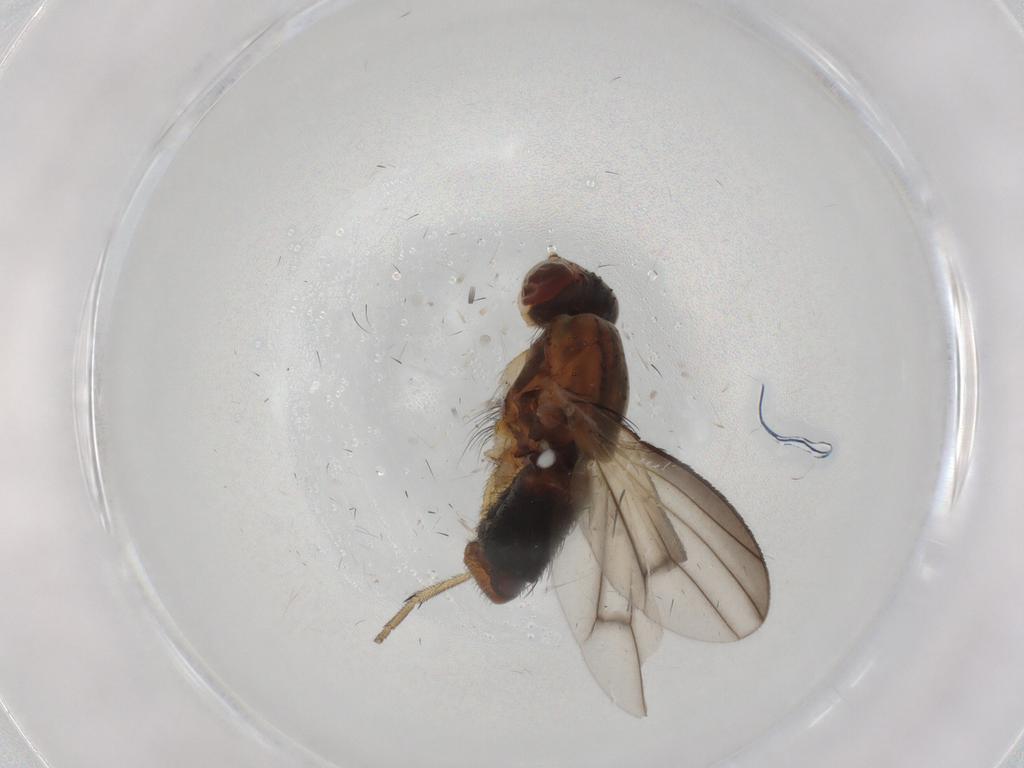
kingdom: Animalia
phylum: Arthropoda
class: Insecta
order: Diptera
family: Heleomyzidae
